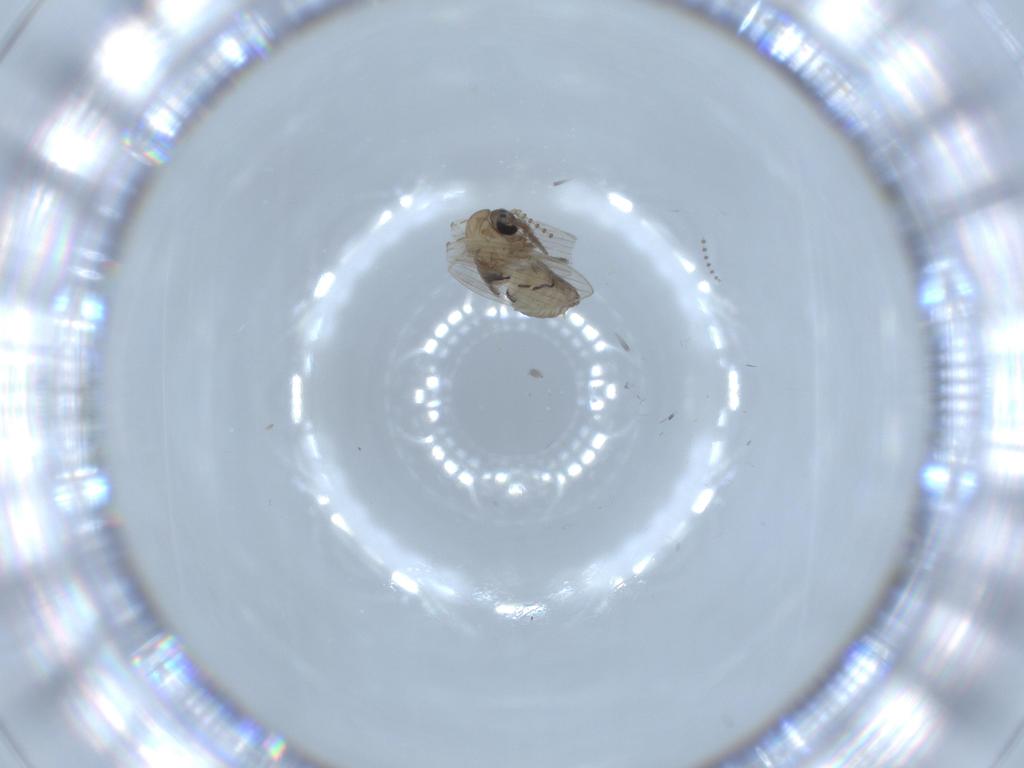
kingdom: Animalia
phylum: Arthropoda
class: Insecta
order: Diptera
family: Psychodidae
